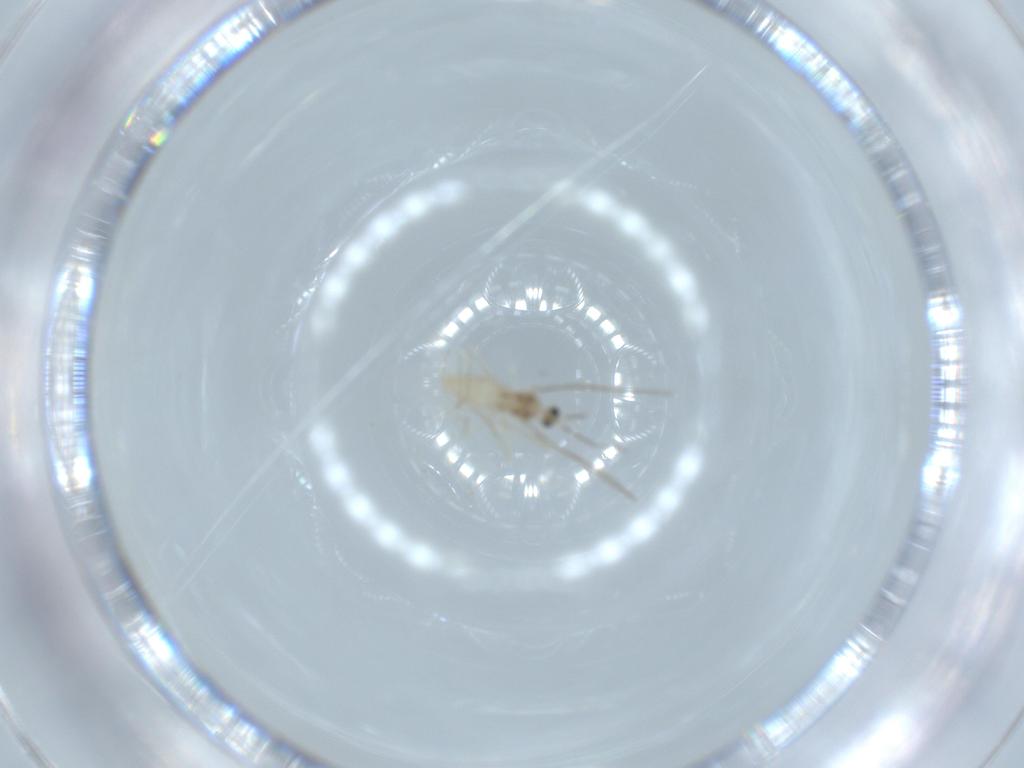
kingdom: Animalia
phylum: Arthropoda
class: Insecta
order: Diptera
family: Cecidomyiidae
